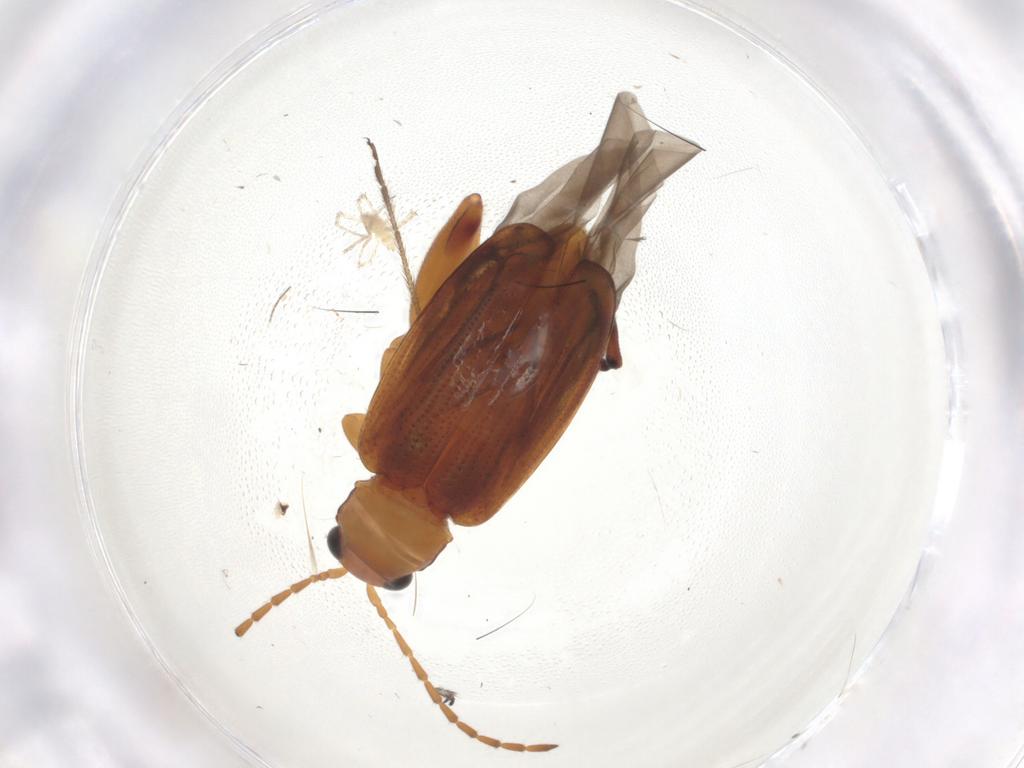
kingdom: Animalia
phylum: Arthropoda
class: Insecta
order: Coleoptera
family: Chrysomelidae
